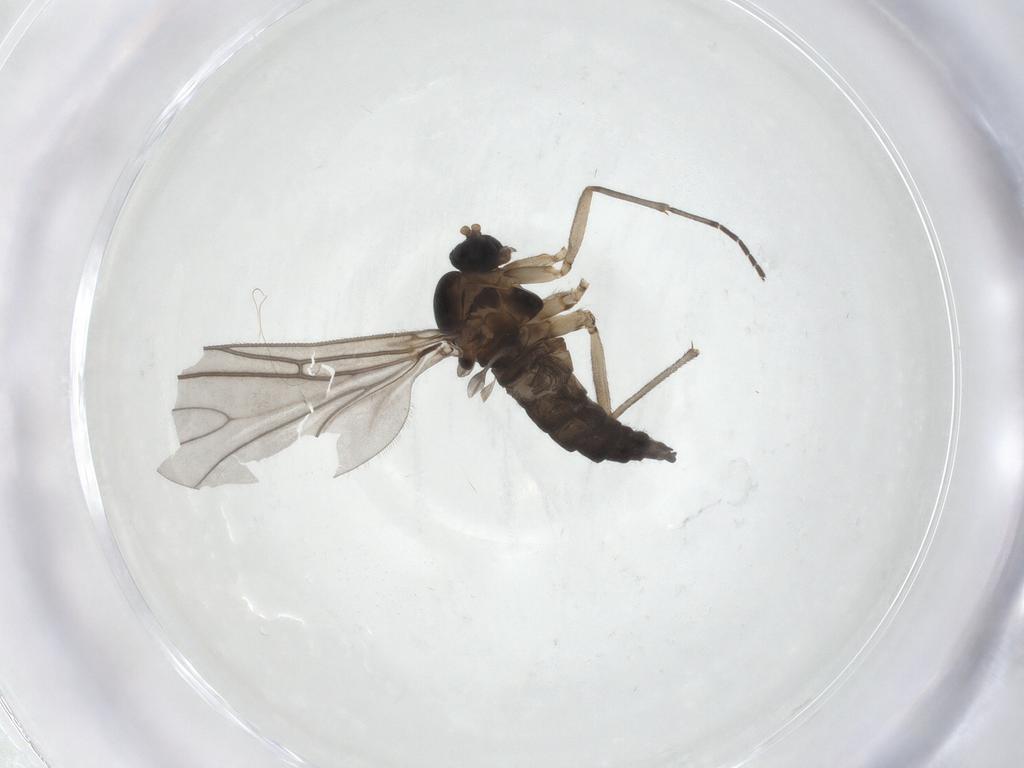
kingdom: Animalia
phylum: Arthropoda
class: Insecta
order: Diptera
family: Sciaridae
